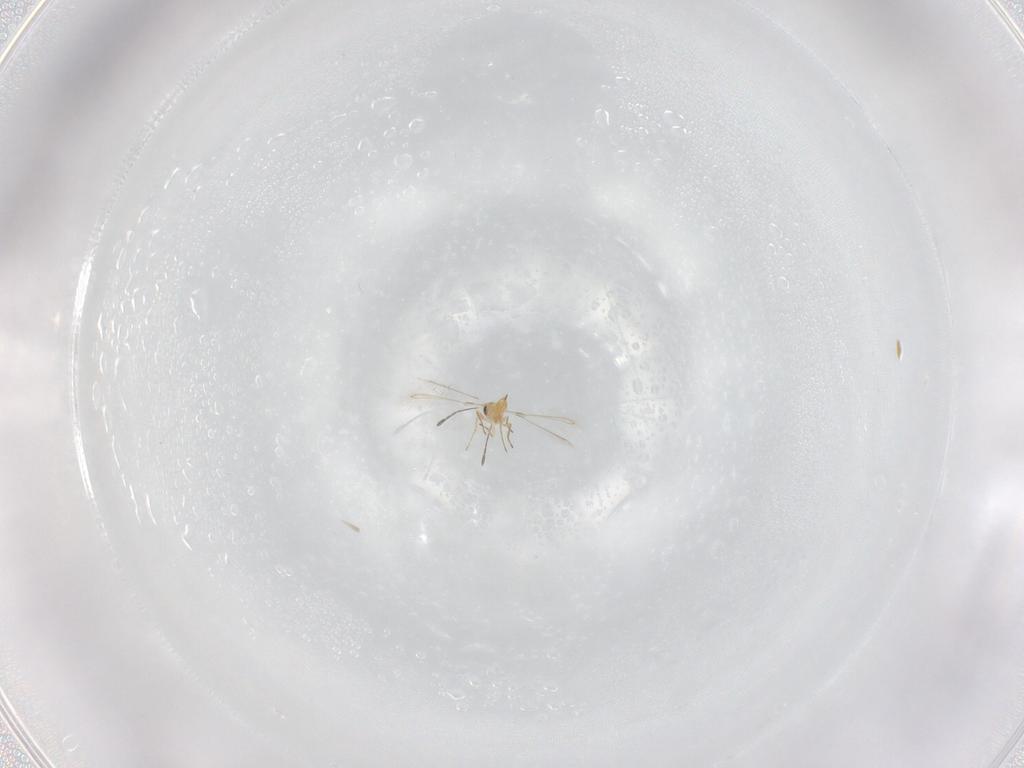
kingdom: Animalia
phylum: Arthropoda
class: Insecta
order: Hymenoptera
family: Mymaridae
